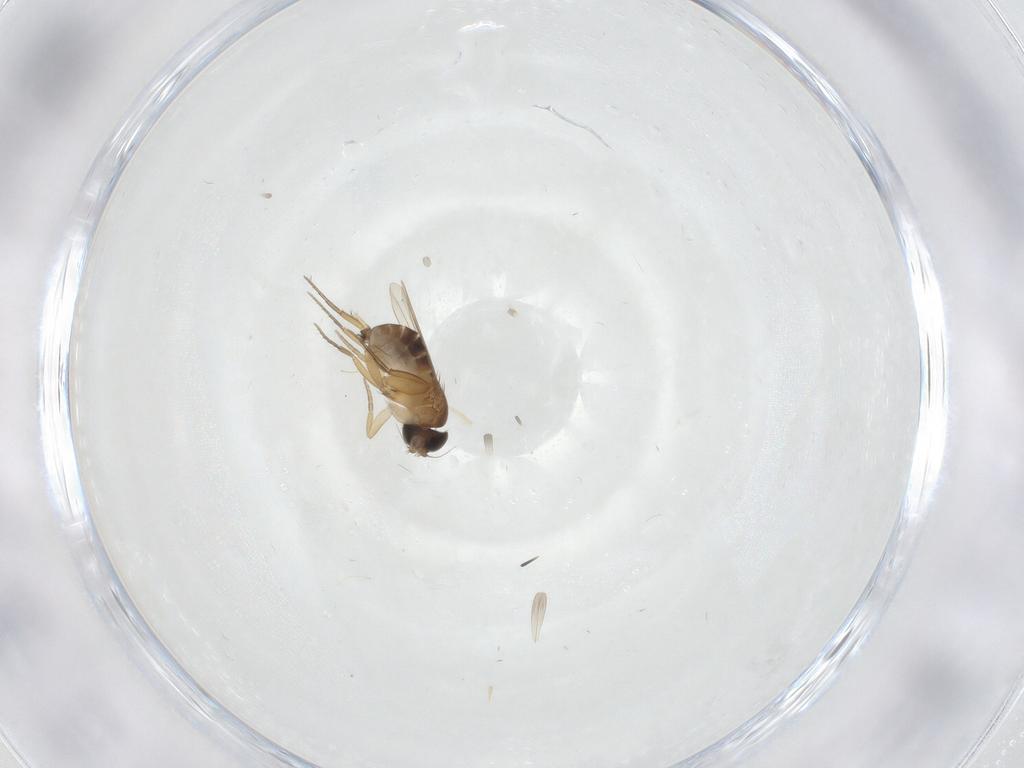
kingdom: Animalia
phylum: Arthropoda
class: Insecta
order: Diptera
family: Phoridae
